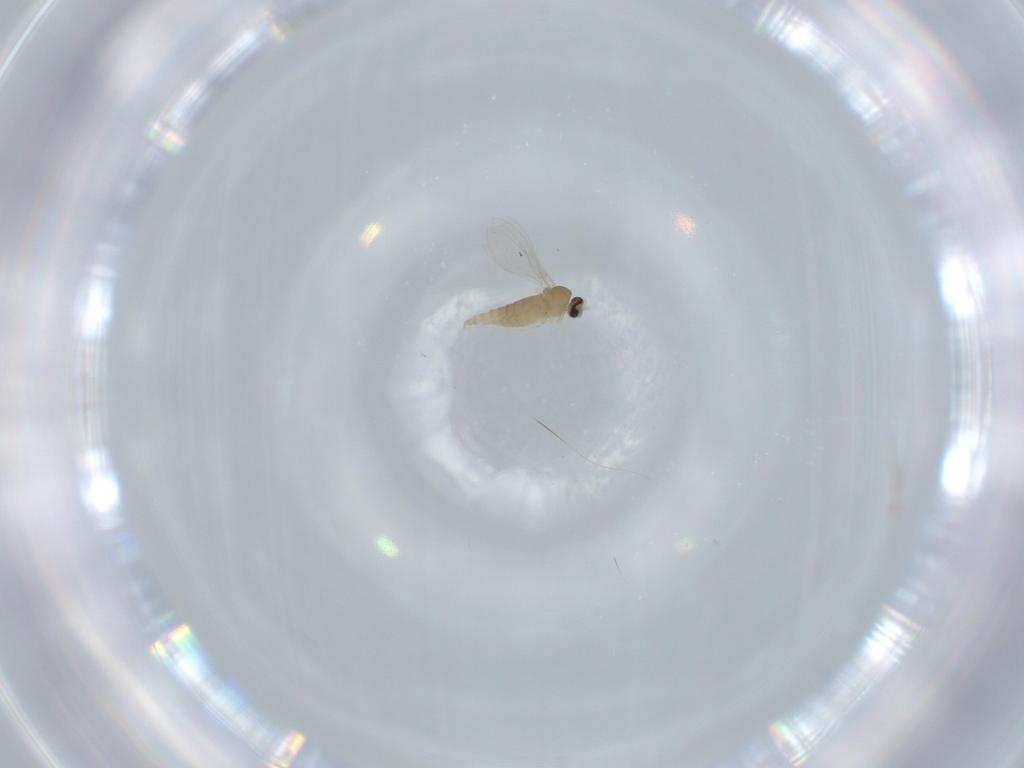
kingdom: Animalia
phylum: Arthropoda
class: Insecta
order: Diptera
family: Cecidomyiidae
